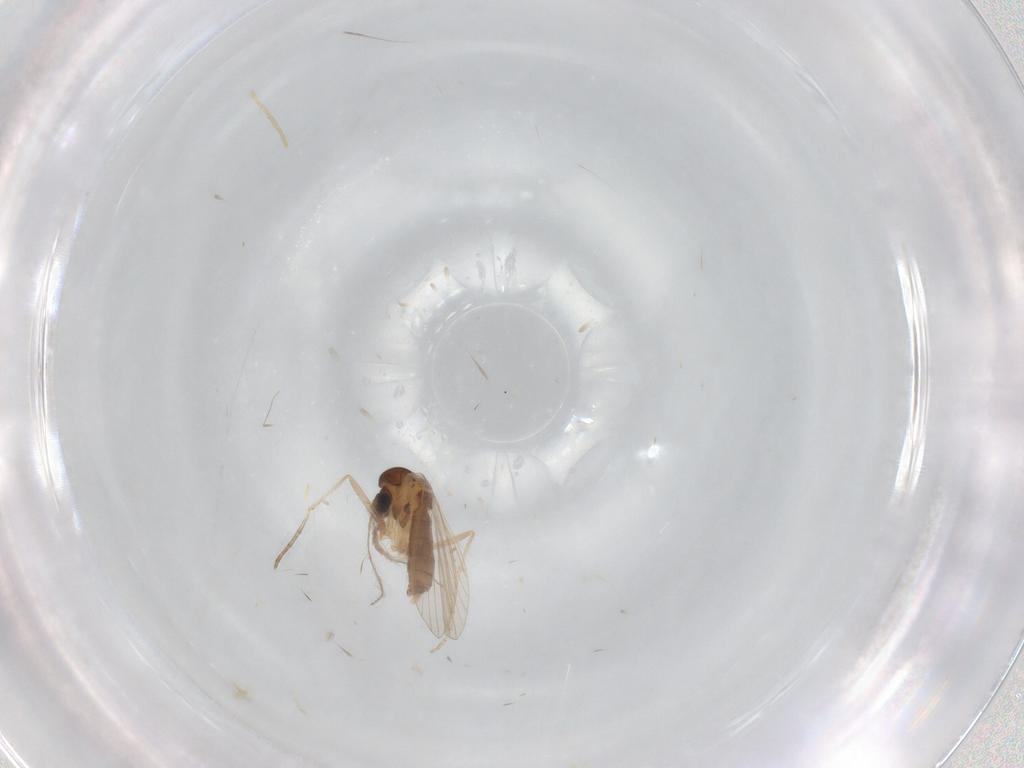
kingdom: Animalia
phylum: Arthropoda
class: Insecta
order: Diptera
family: Psychodidae
